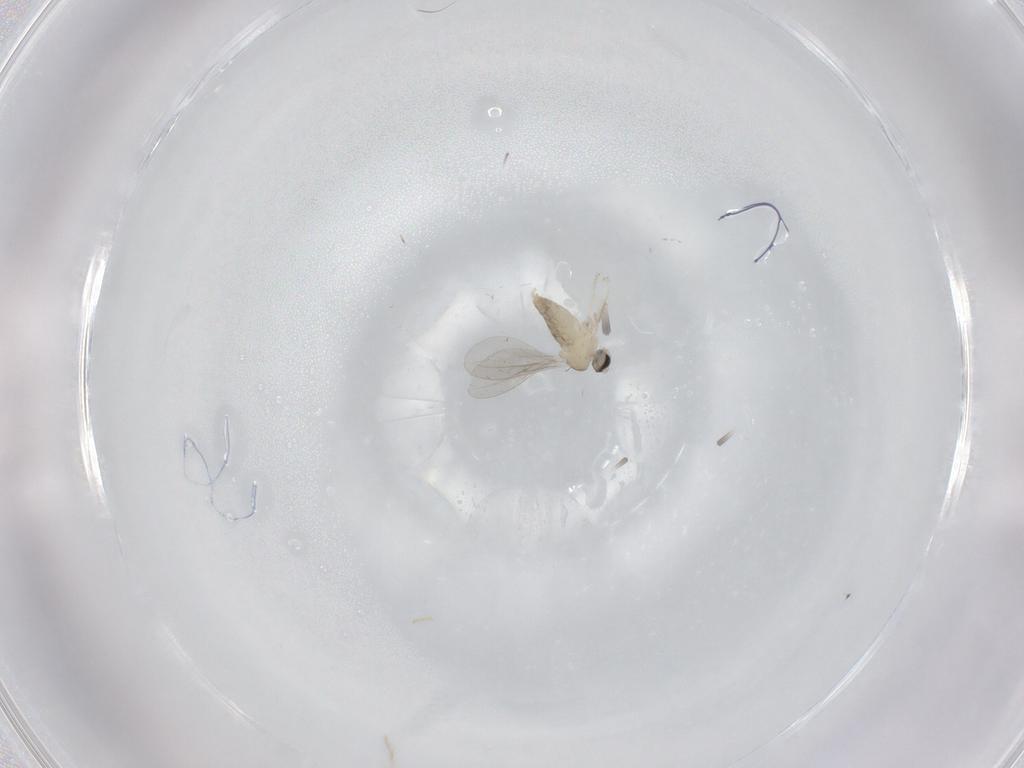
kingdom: Animalia
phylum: Arthropoda
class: Insecta
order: Diptera
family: Cecidomyiidae
